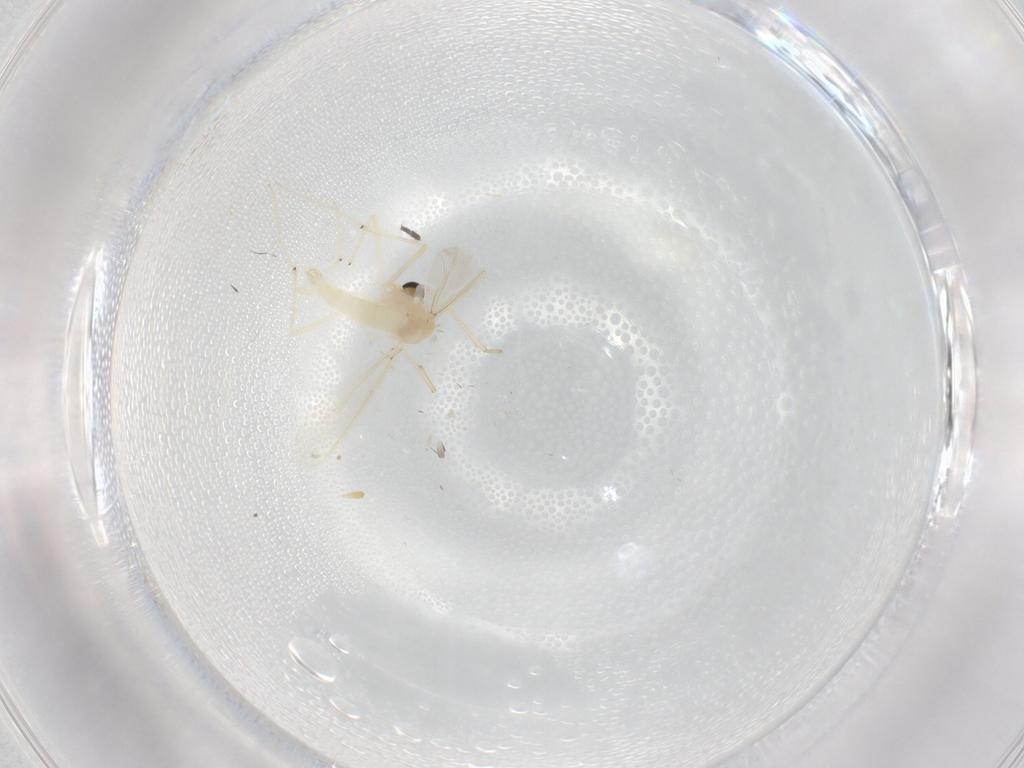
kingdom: Animalia
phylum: Arthropoda
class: Insecta
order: Diptera
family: Chironomidae
